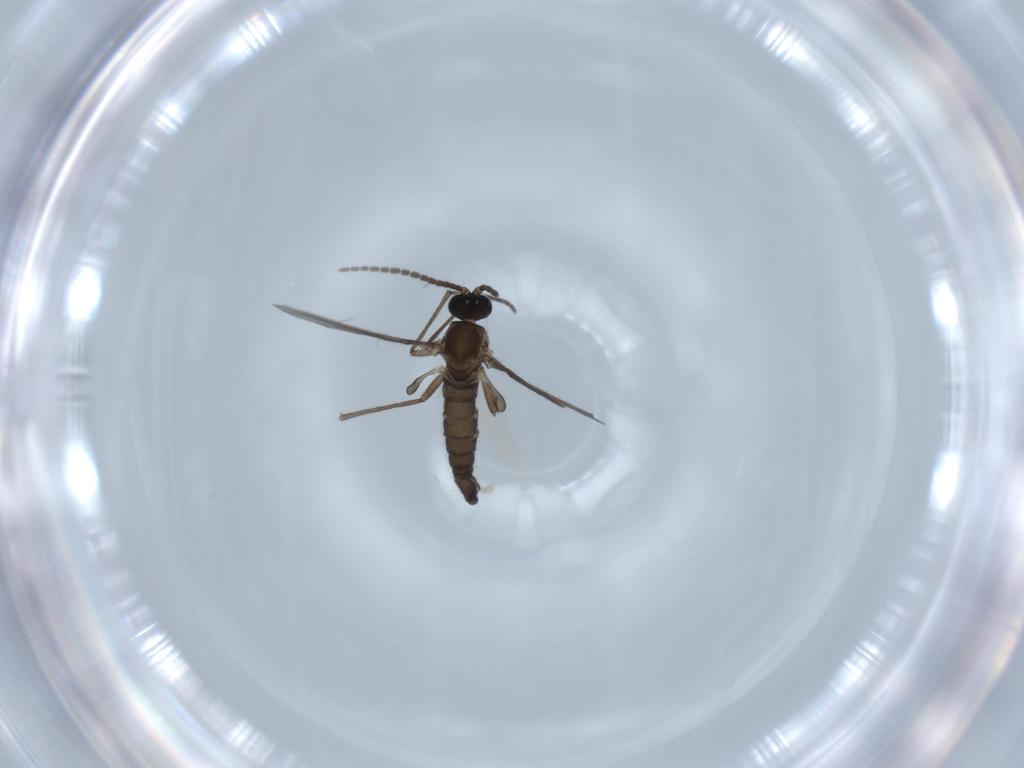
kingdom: Animalia
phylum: Arthropoda
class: Insecta
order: Diptera
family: Sciaridae
